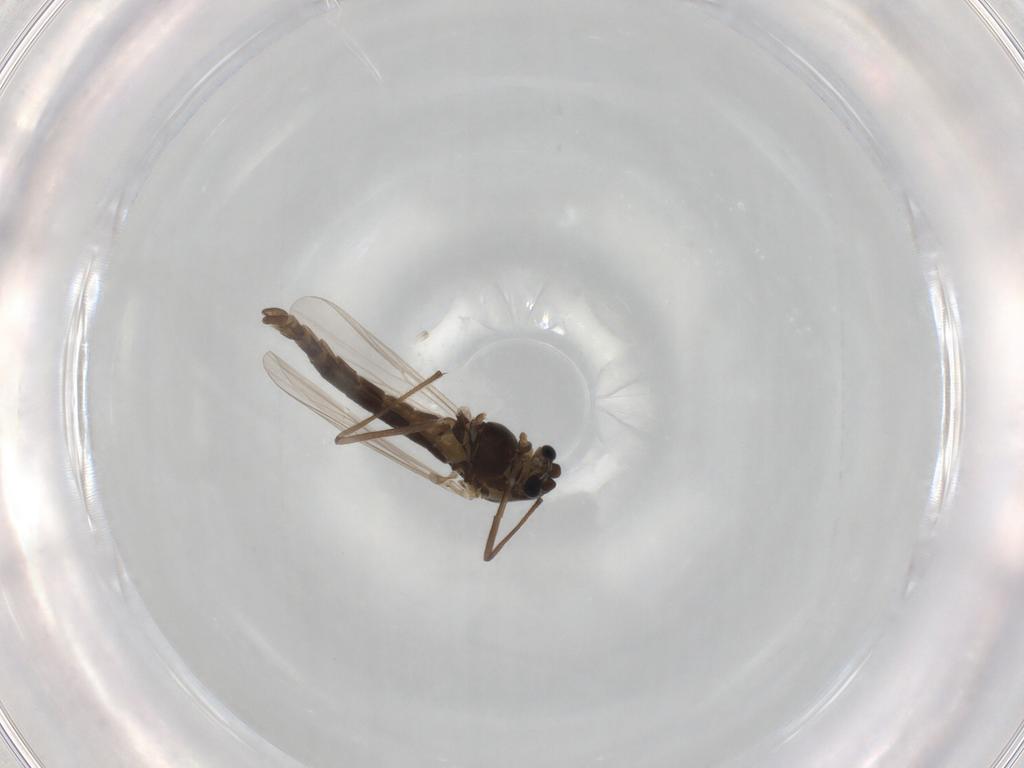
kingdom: Animalia
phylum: Arthropoda
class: Insecta
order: Diptera
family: Chironomidae
